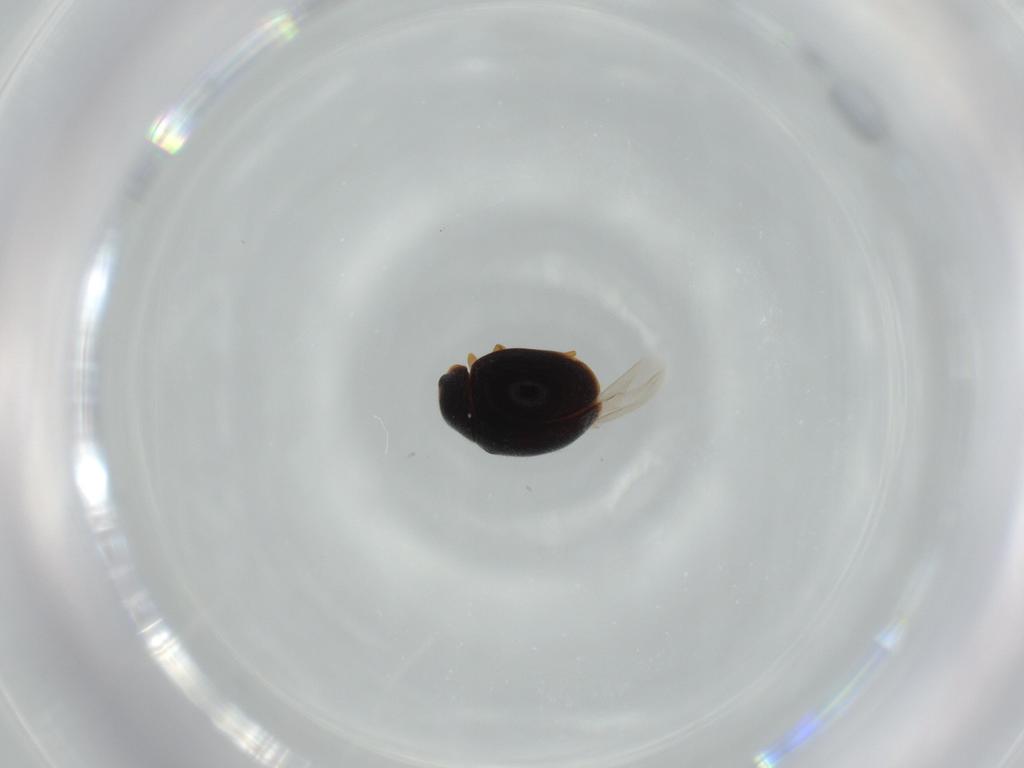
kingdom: Animalia
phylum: Arthropoda
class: Insecta
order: Coleoptera
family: Coccinellidae
